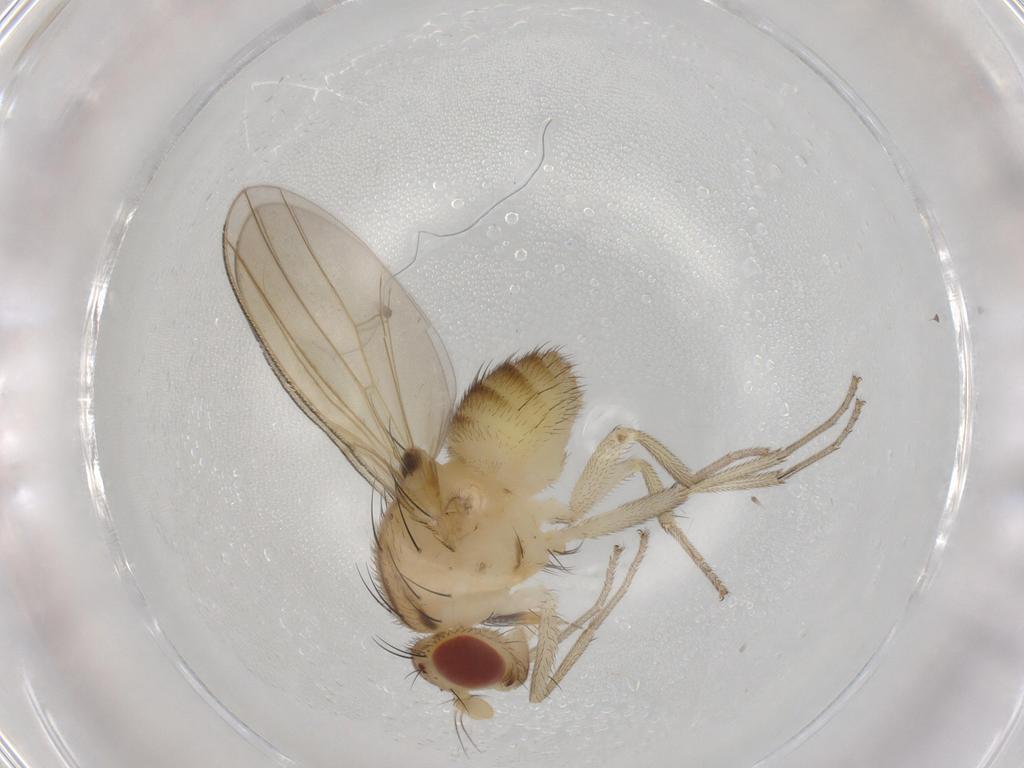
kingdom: Animalia
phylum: Arthropoda
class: Insecta
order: Diptera
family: Sciaridae
